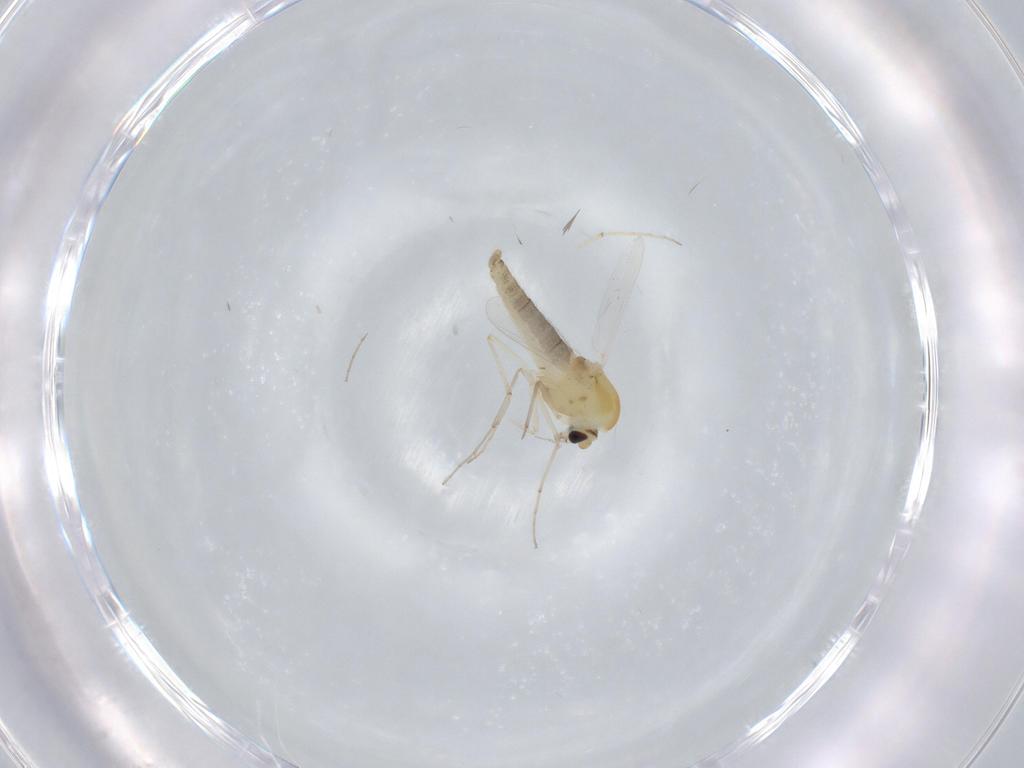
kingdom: Animalia
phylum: Arthropoda
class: Insecta
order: Diptera
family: Chironomidae
